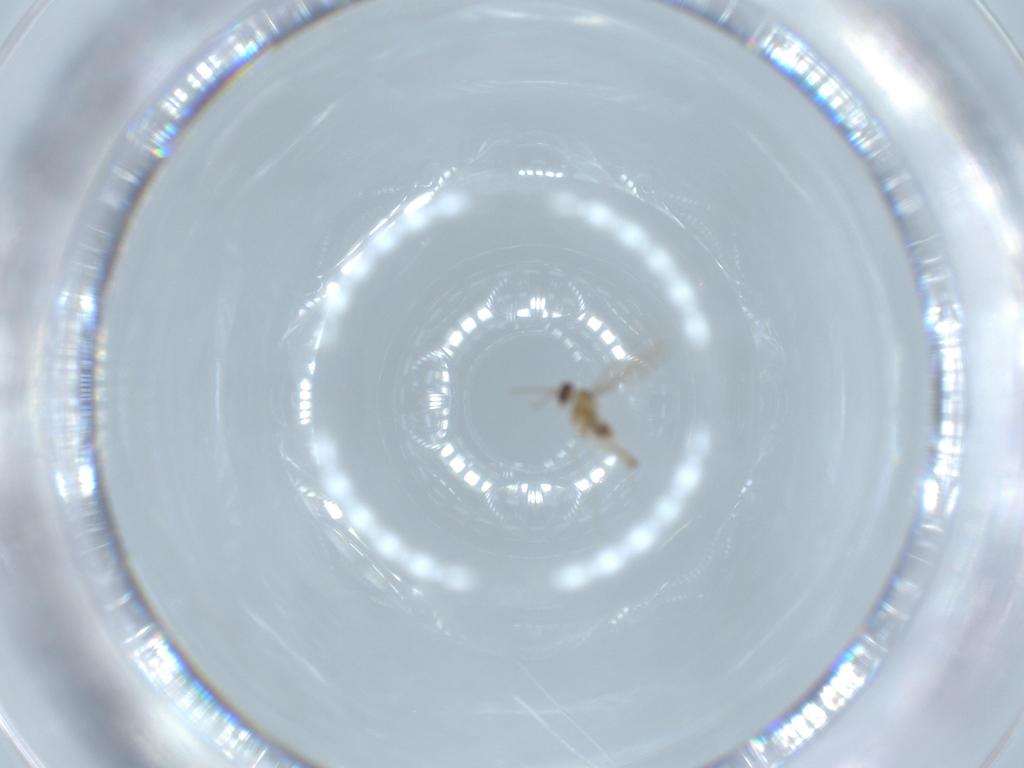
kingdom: Animalia
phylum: Arthropoda
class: Insecta
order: Diptera
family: Cecidomyiidae
